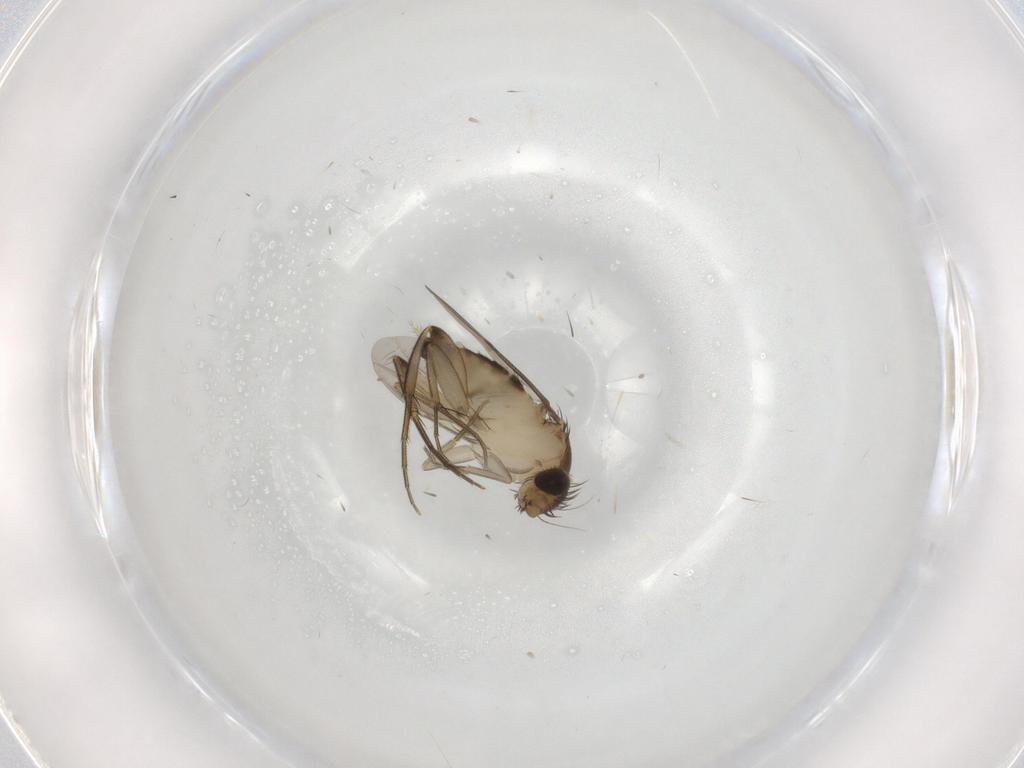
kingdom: Animalia
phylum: Arthropoda
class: Insecta
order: Diptera
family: Phoridae
